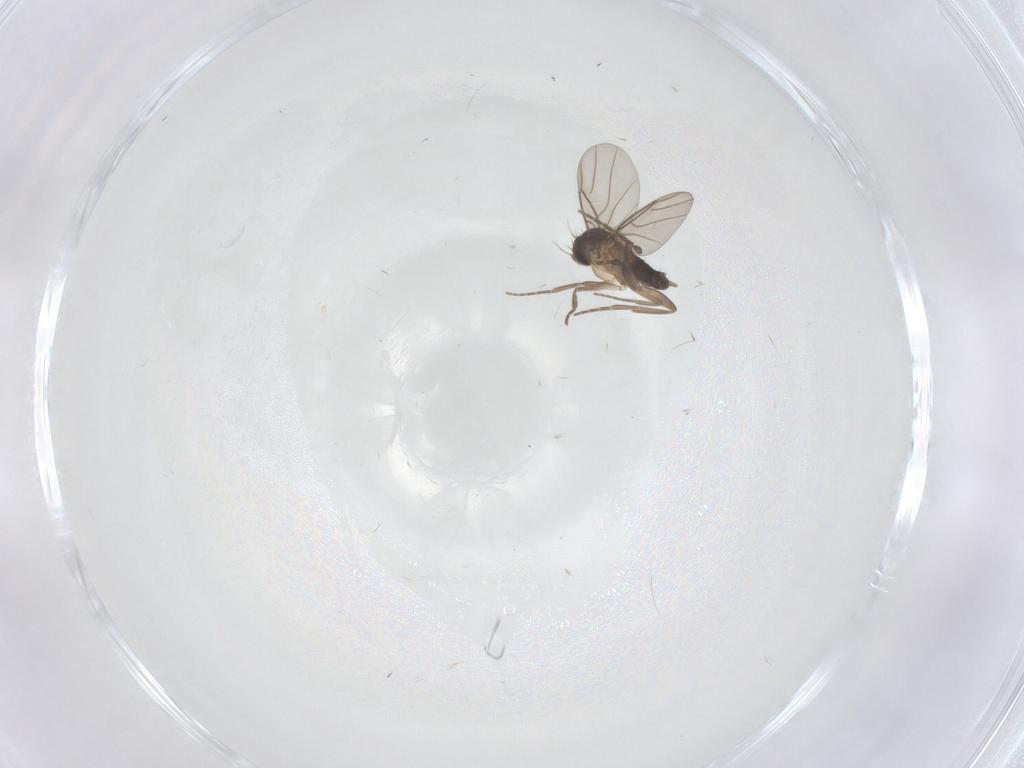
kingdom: Animalia
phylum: Arthropoda
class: Insecta
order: Diptera
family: Phoridae
